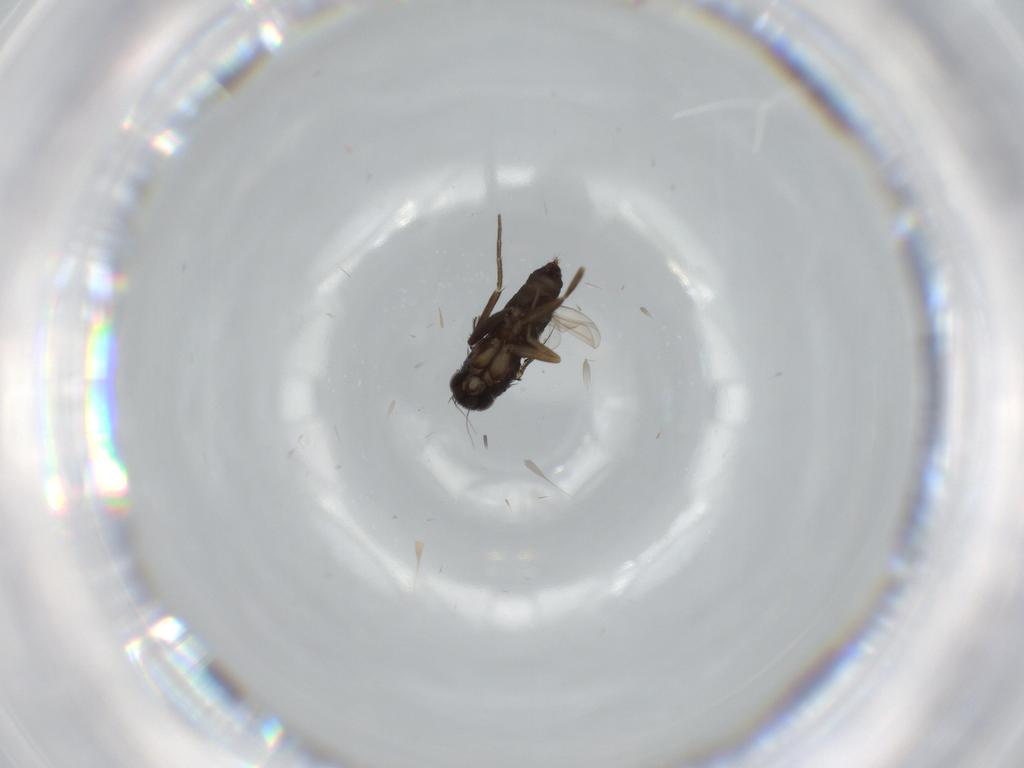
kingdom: Animalia
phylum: Arthropoda
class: Insecta
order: Diptera
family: Phoridae
